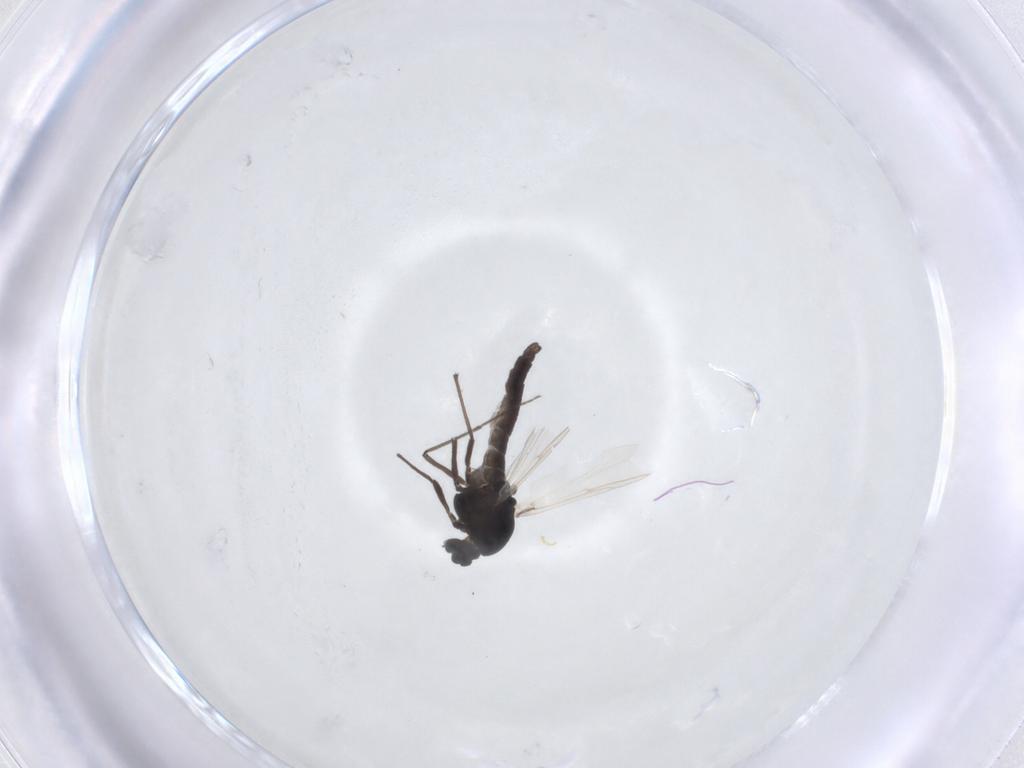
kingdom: Animalia
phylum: Arthropoda
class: Insecta
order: Diptera
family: Chironomidae
